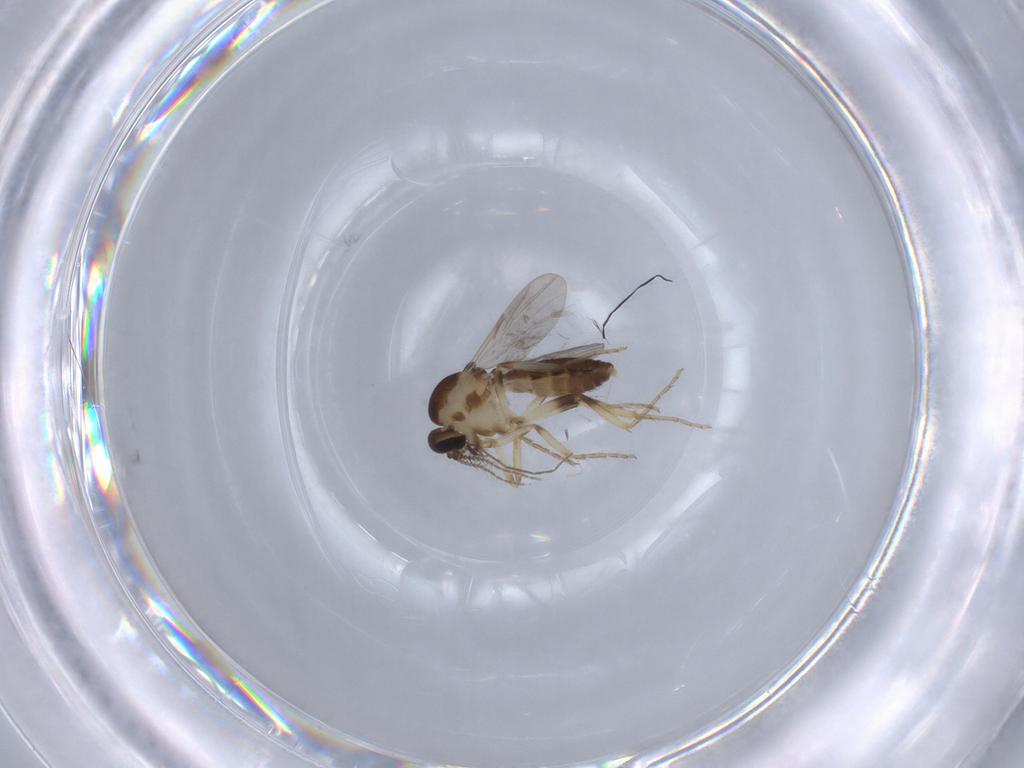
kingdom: Animalia
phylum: Arthropoda
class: Insecta
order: Diptera
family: Ceratopogonidae
